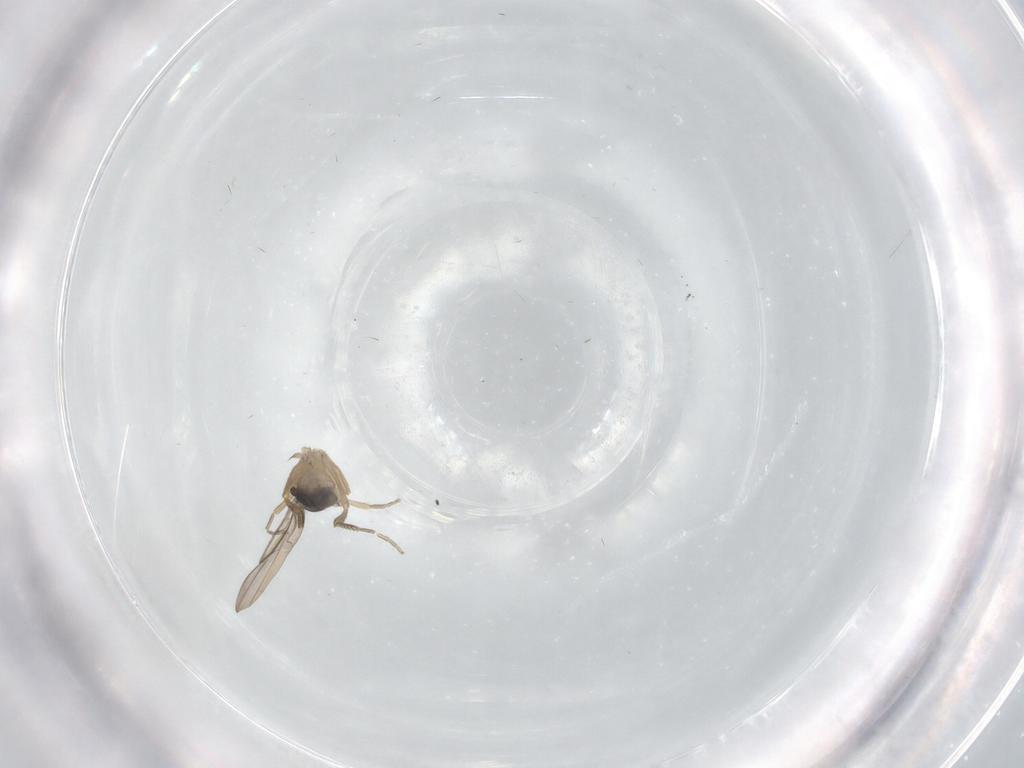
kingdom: Animalia
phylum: Arthropoda
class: Insecta
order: Diptera
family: Phoridae
